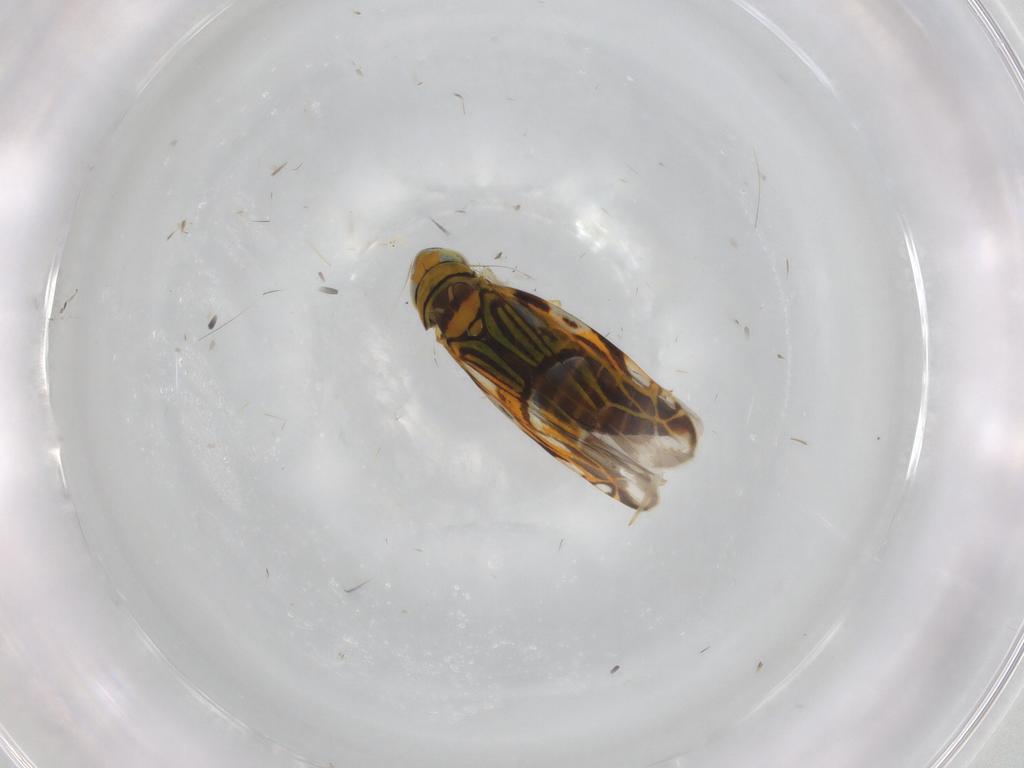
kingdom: Animalia
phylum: Arthropoda
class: Insecta
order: Hemiptera
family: Cicadellidae
